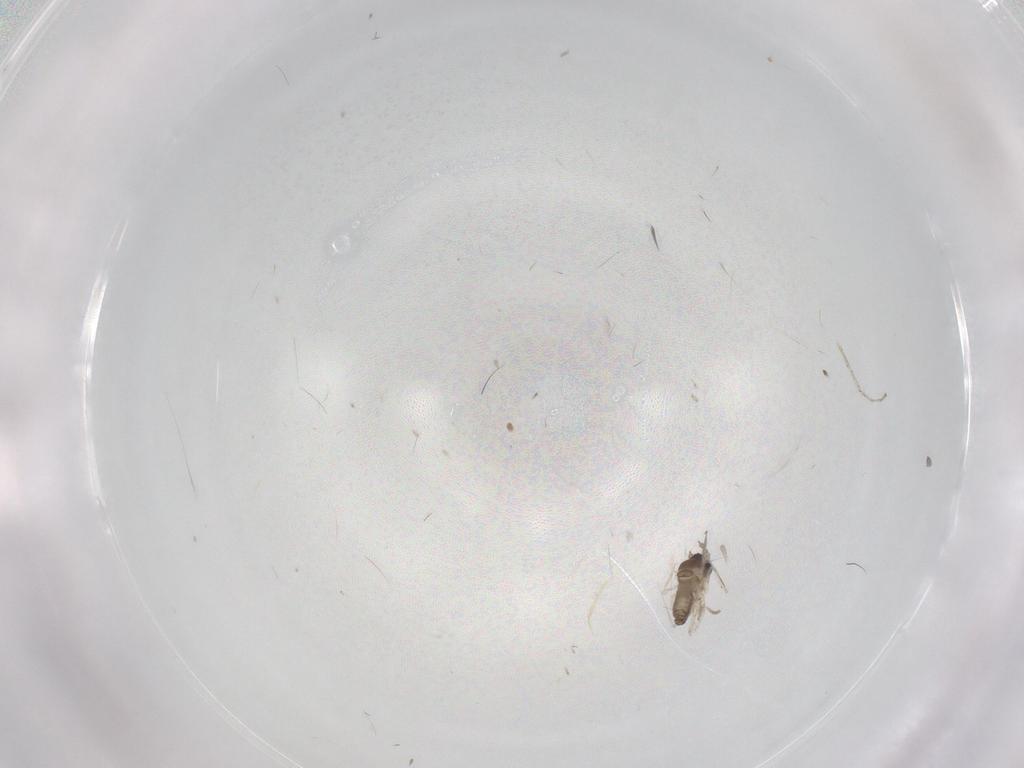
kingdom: Animalia
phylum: Arthropoda
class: Insecta
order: Diptera
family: Cecidomyiidae
